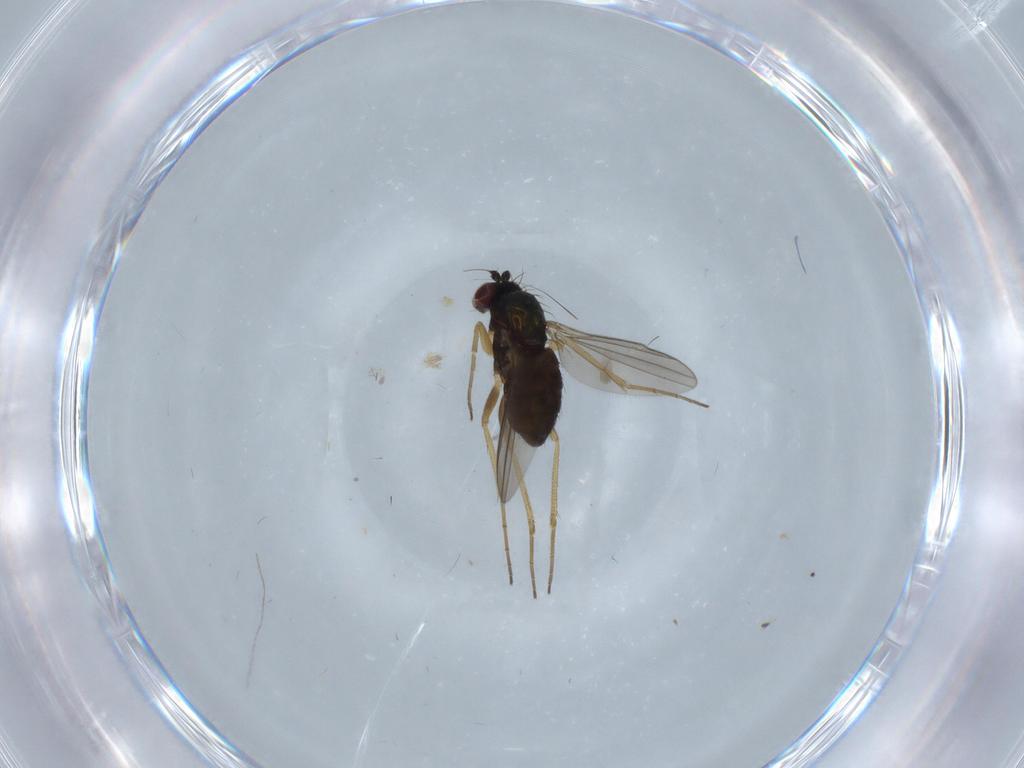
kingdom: Animalia
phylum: Arthropoda
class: Insecta
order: Diptera
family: Dolichopodidae
